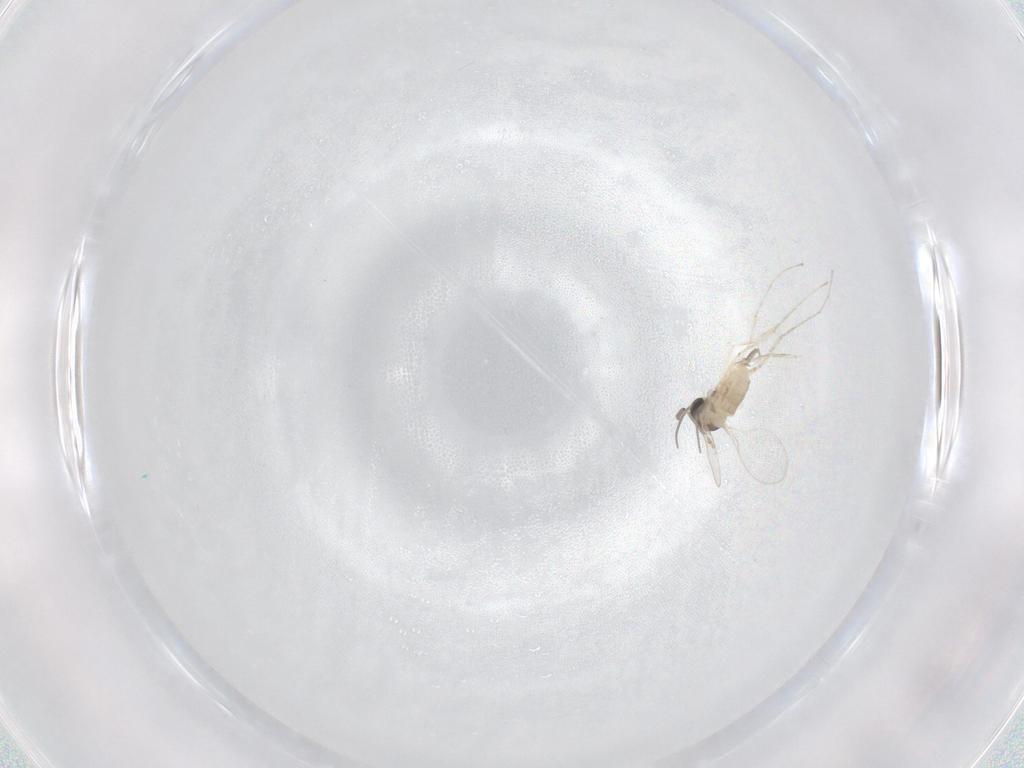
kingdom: Animalia
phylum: Arthropoda
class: Insecta
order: Diptera
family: Cecidomyiidae
